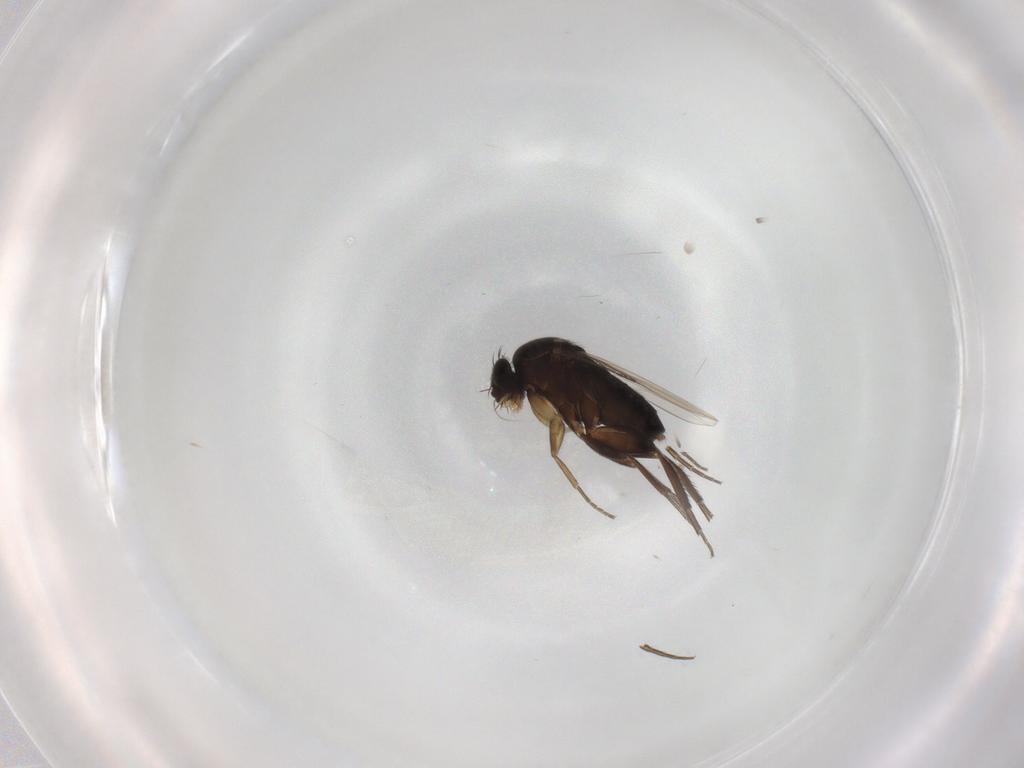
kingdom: Animalia
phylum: Arthropoda
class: Insecta
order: Diptera
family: Phoridae
